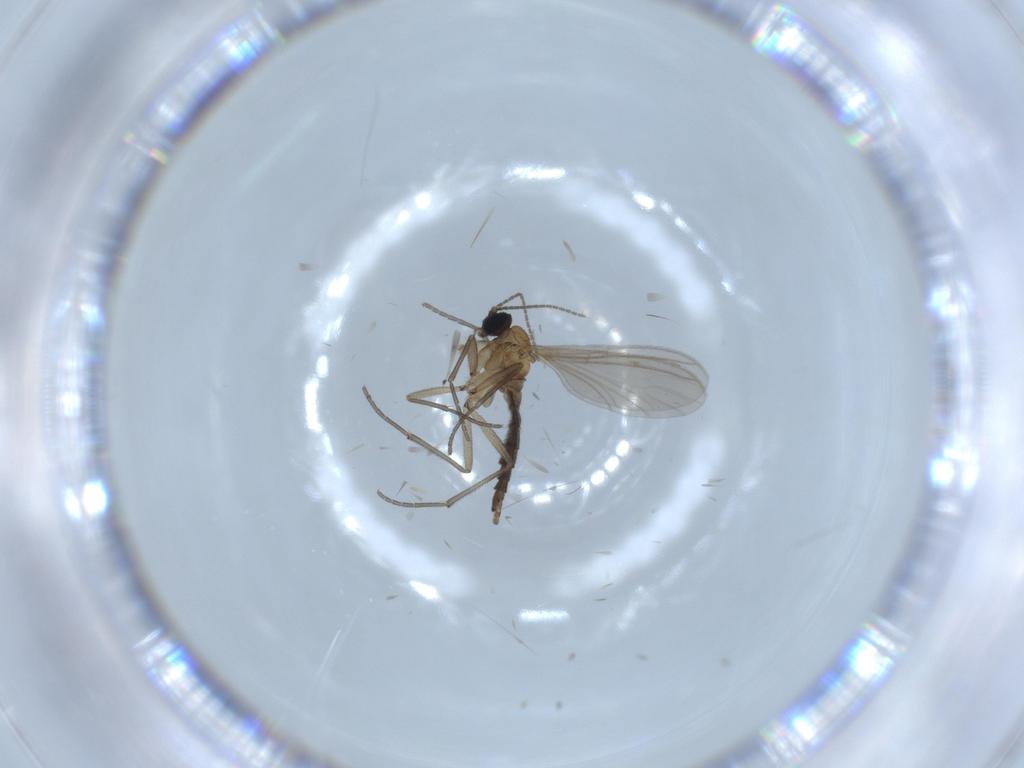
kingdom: Animalia
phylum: Arthropoda
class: Insecta
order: Diptera
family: Sciaridae
